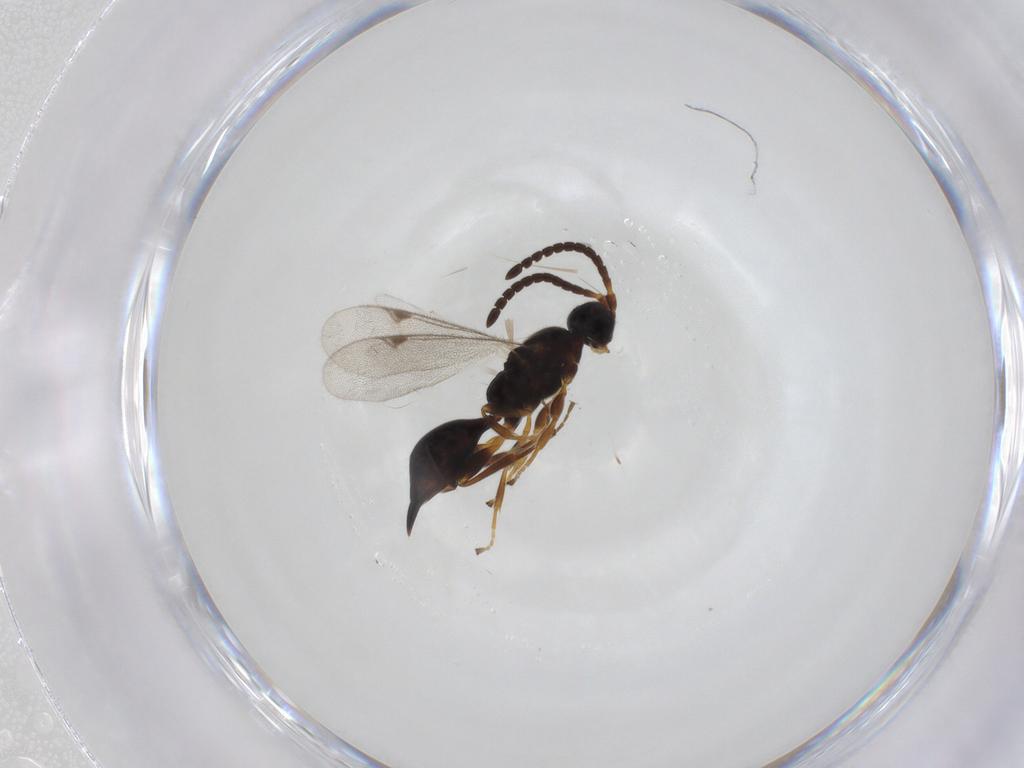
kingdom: Animalia
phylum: Arthropoda
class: Insecta
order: Hymenoptera
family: Proctotrupidae
